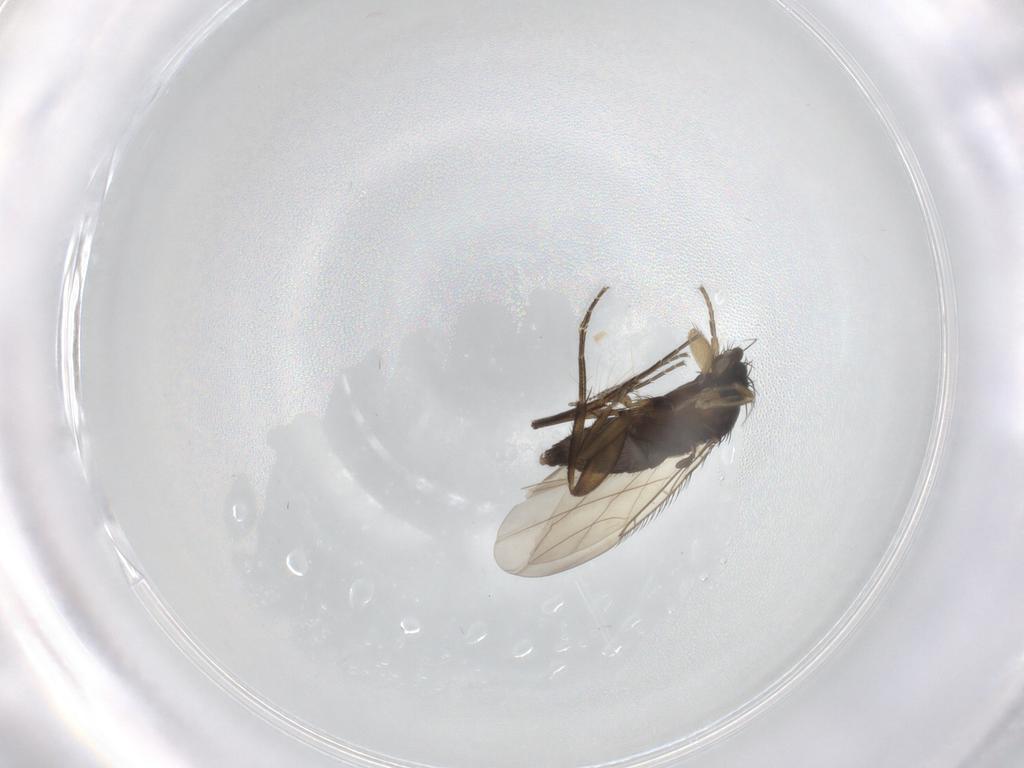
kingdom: Animalia
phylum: Arthropoda
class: Insecta
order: Diptera
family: Phoridae
